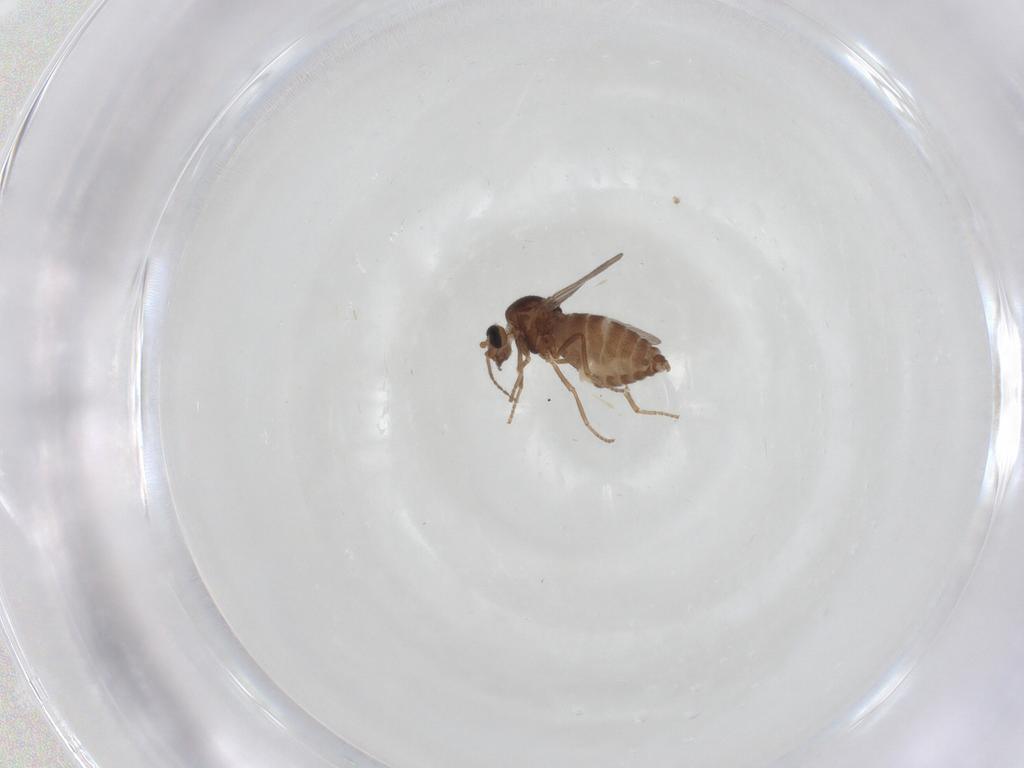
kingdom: Animalia
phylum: Arthropoda
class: Insecta
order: Diptera
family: Ceratopogonidae
